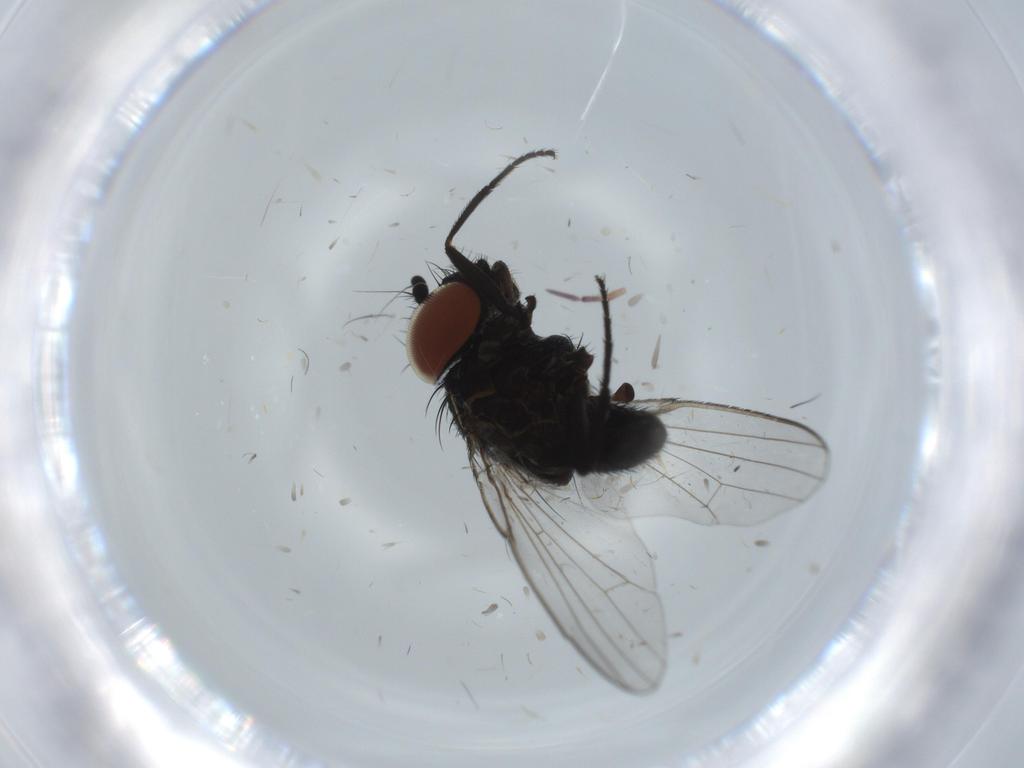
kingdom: Animalia
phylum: Arthropoda
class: Insecta
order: Diptera
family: Milichiidae
